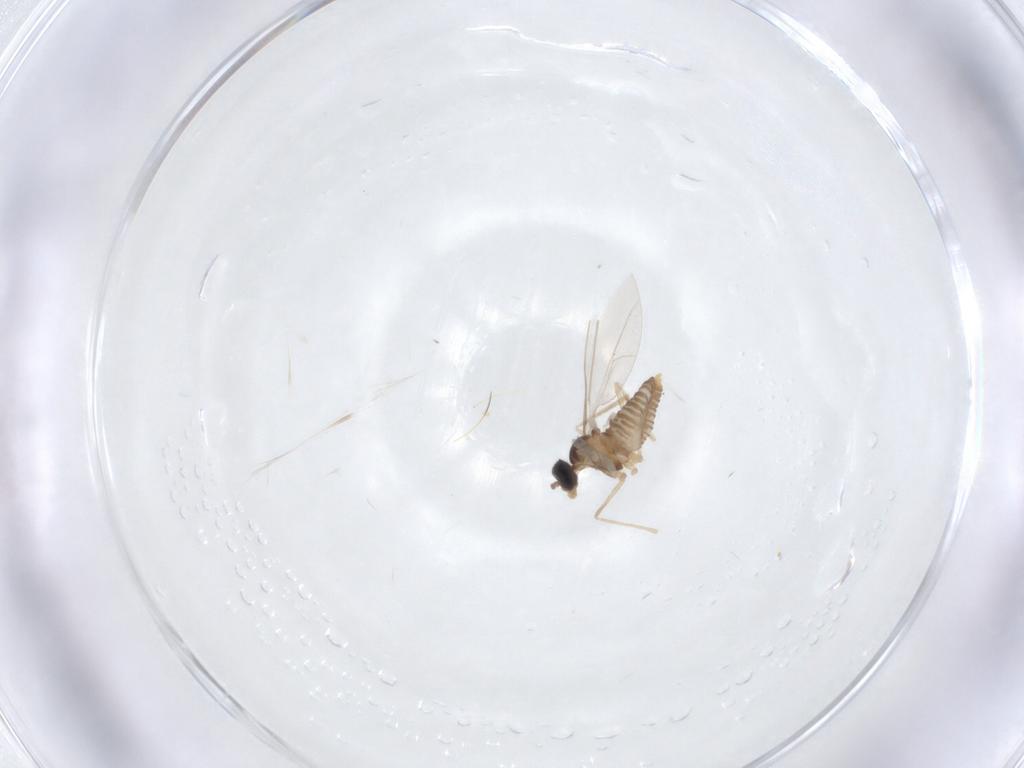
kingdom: Animalia
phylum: Arthropoda
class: Insecta
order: Diptera
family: Cecidomyiidae
